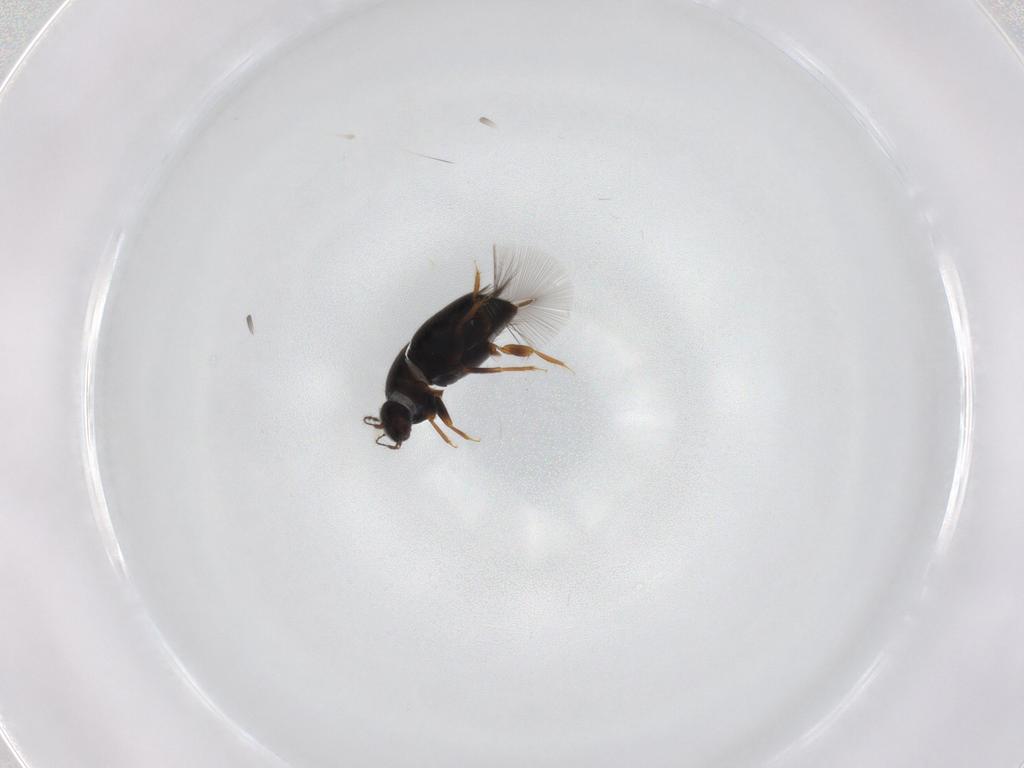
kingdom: Animalia
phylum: Arthropoda
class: Insecta
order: Coleoptera
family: Ptiliidae
